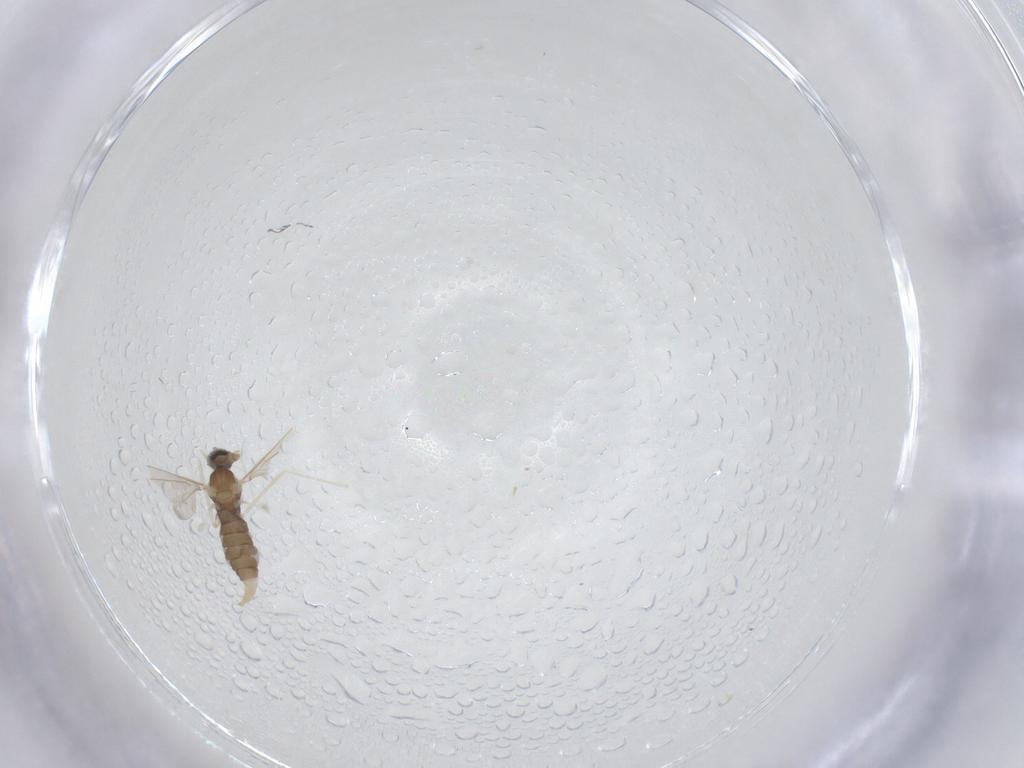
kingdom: Animalia
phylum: Arthropoda
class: Insecta
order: Diptera
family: Cecidomyiidae
